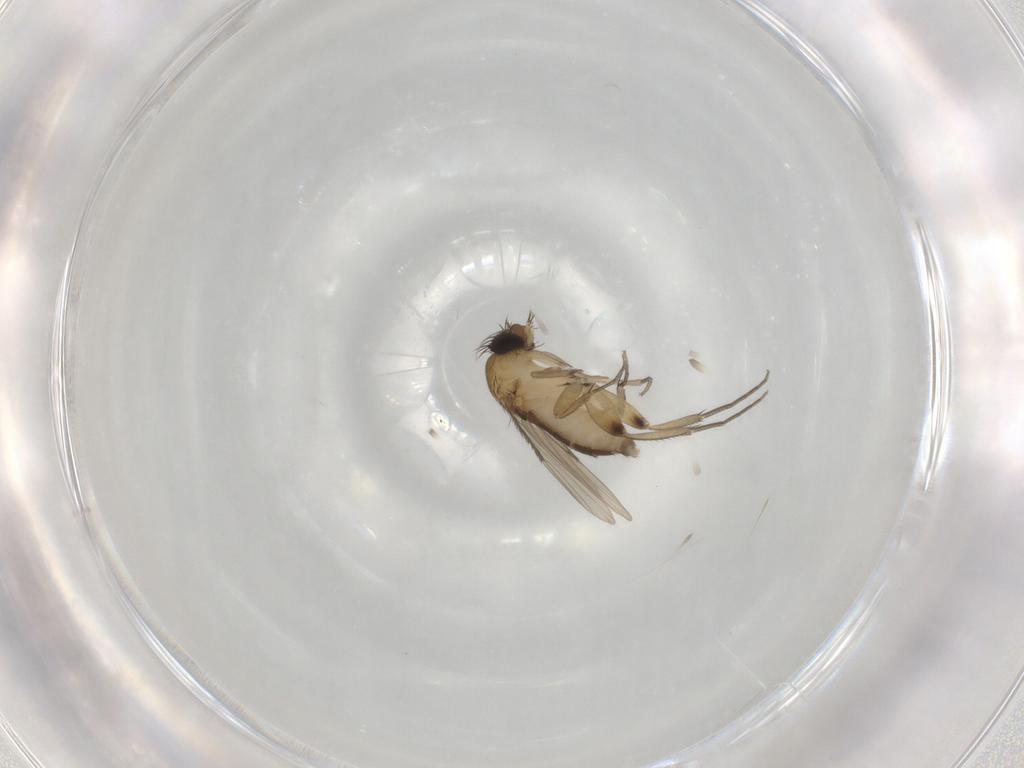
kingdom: Animalia
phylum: Arthropoda
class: Insecta
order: Diptera
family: Phoridae
